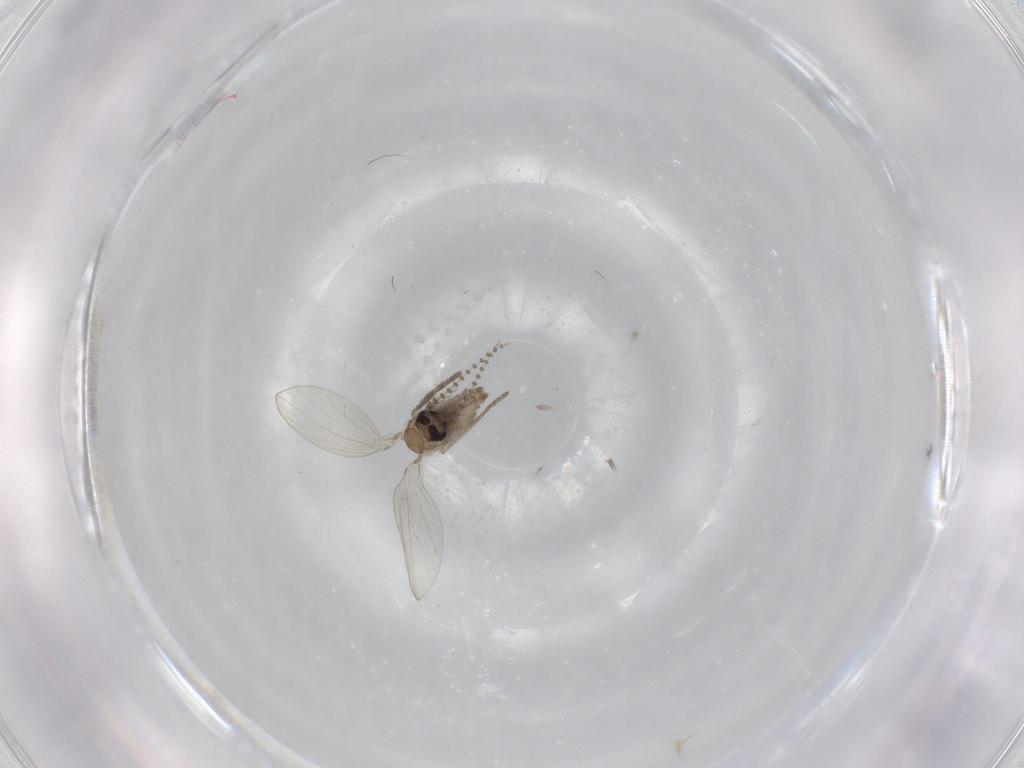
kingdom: Animalia
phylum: Arthropoda
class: Insecta
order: Diptera
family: Psychodidae
